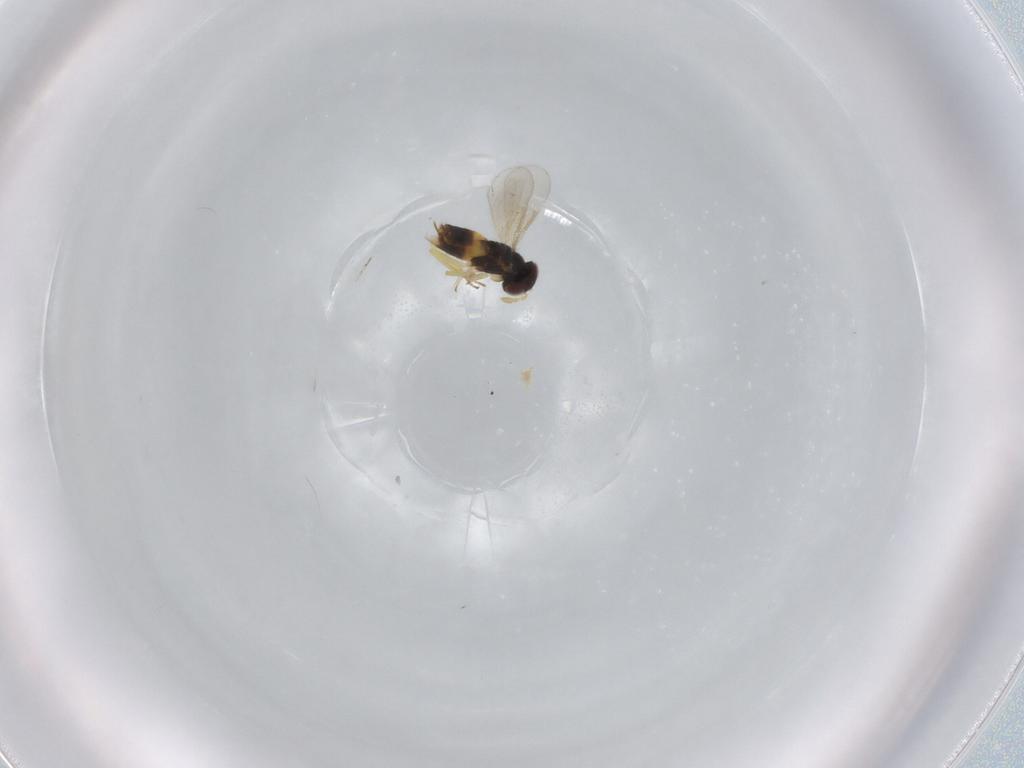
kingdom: Animalia
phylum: Arthropoda
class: Insecta
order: Hymenoptera
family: Aphelinidae
